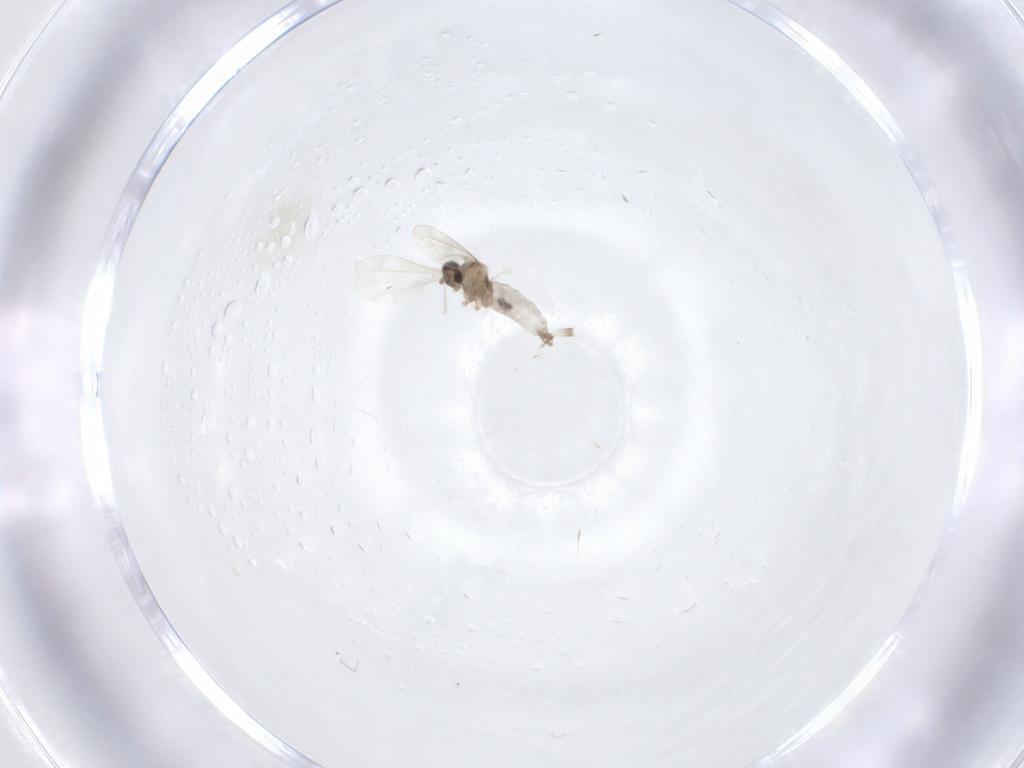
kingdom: Animalia
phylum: Arthropoda
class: Insecta
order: Diptera
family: Cecidomyiidae
